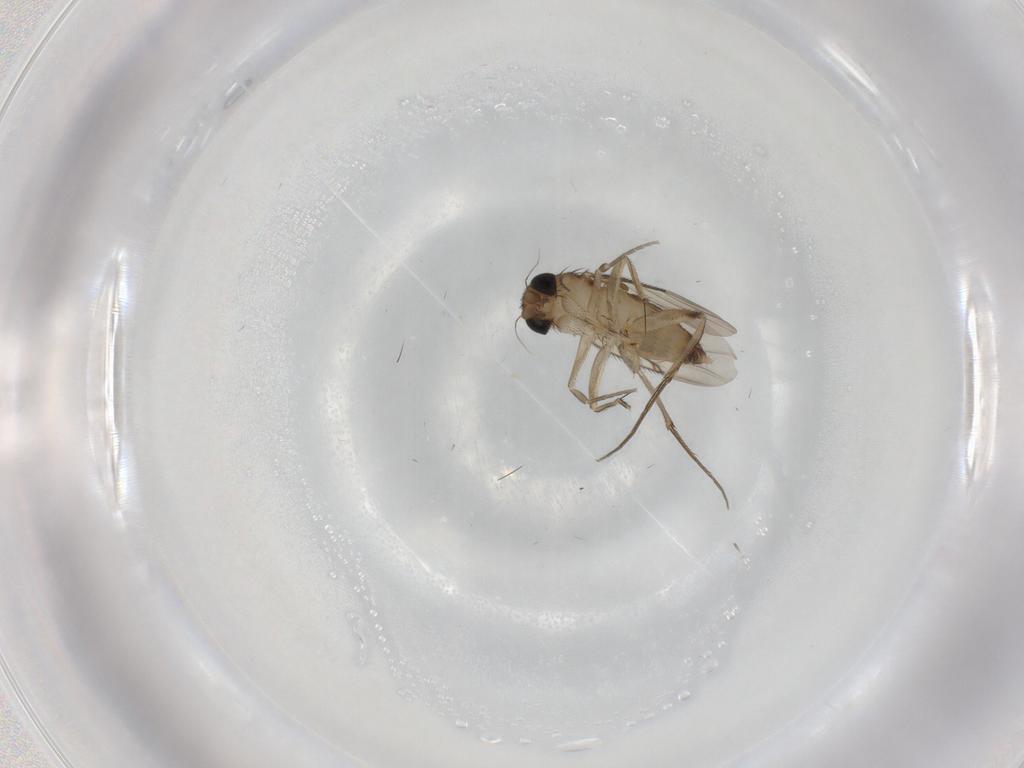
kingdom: Animalia
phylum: Arthropoda
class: Insecta
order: Diptera
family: Phoridae
